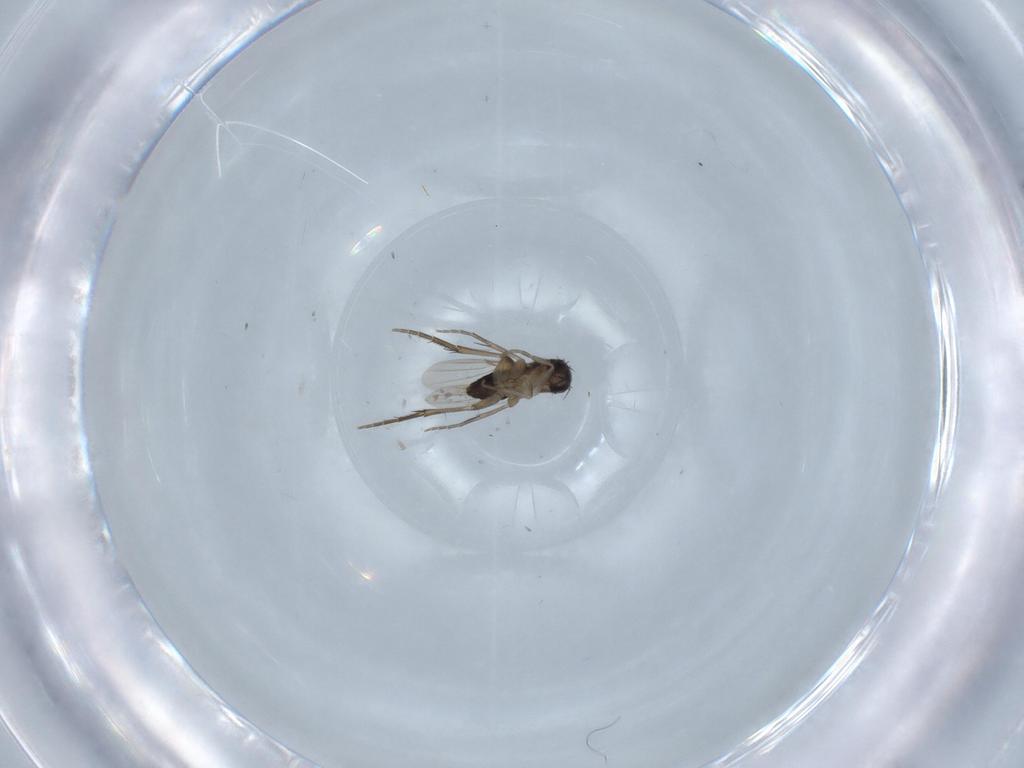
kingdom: Animalia
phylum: Arthropoda
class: Insecta
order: Diptera
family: Phoridae
